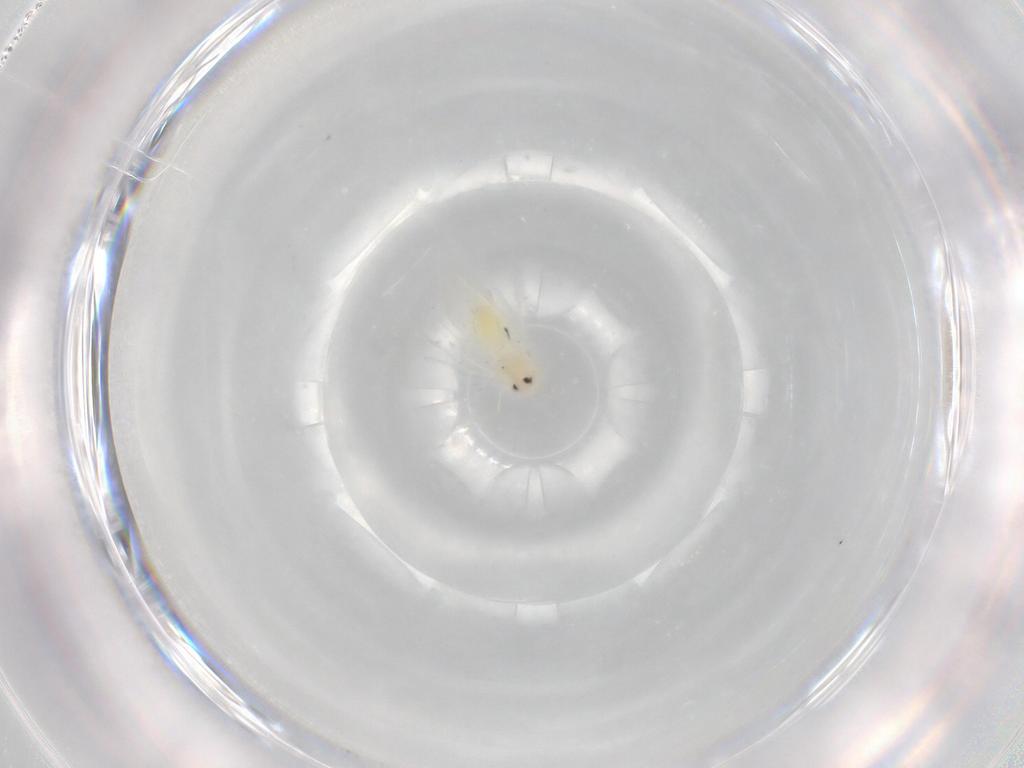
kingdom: Animalia
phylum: Arthropoda
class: Insecta
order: Hemiptera
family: Aleyrodidae
